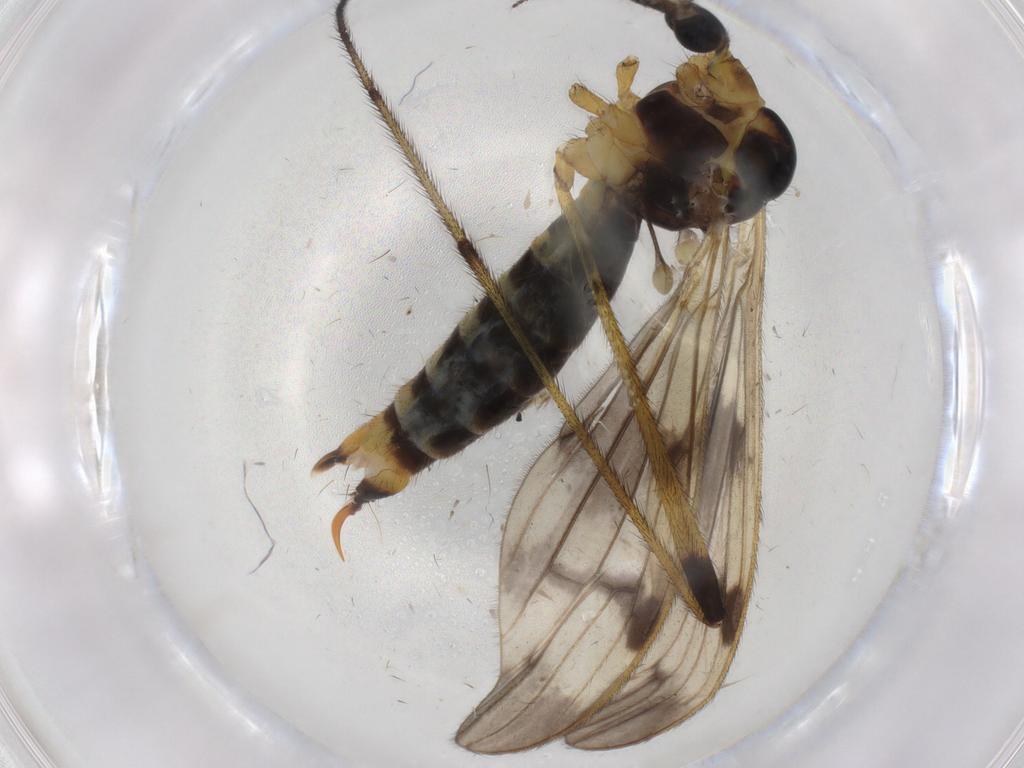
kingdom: Animalia
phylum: Arthropoda
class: Insecta
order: Diptera
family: Limoniidae
